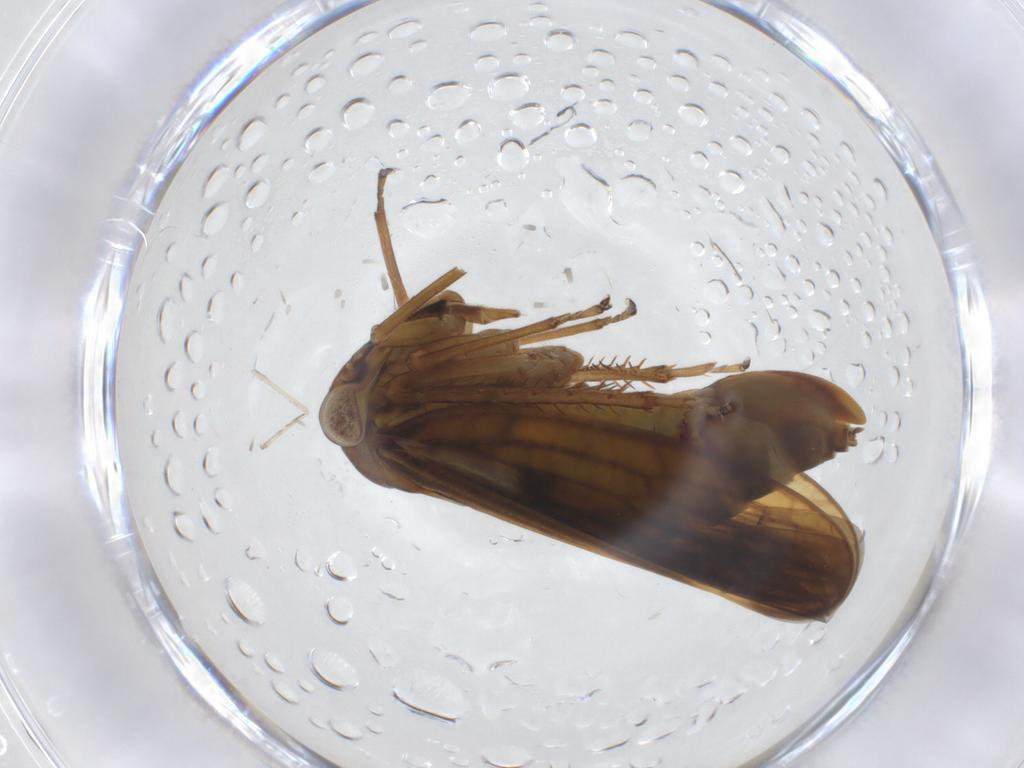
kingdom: Animalia
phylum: Arthropoda
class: Insecta
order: Hemiptera
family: Cicadellidae
